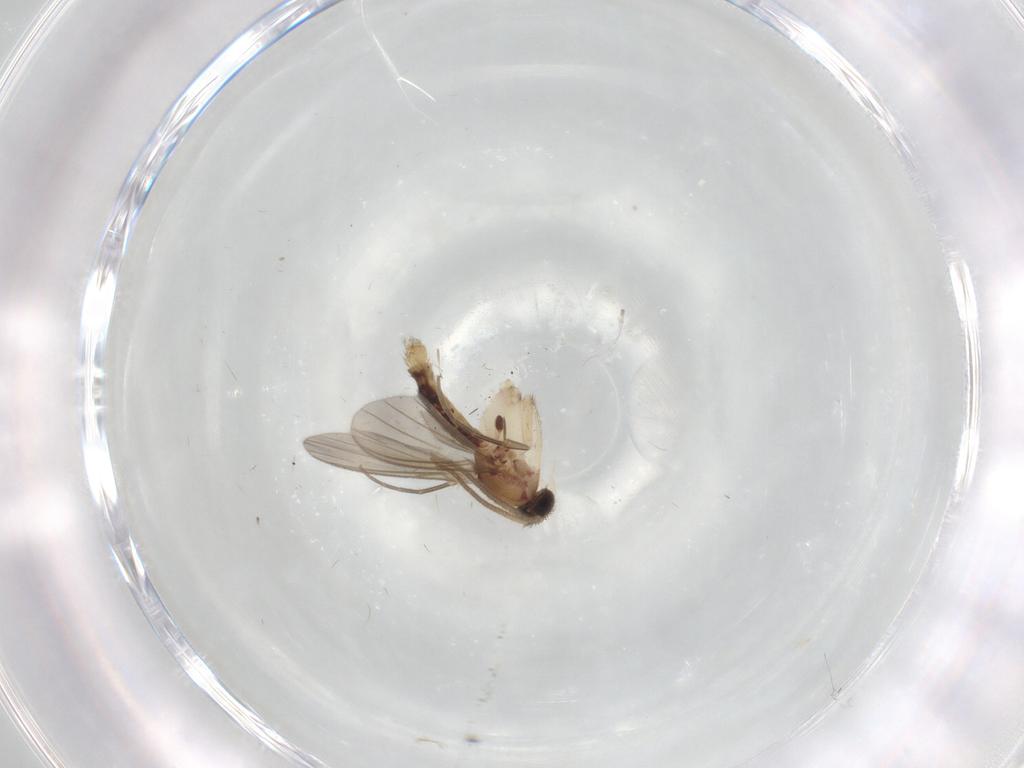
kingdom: Animalia
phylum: Arthropoda
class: Insecta
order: Diptera
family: Mycetophilidae
